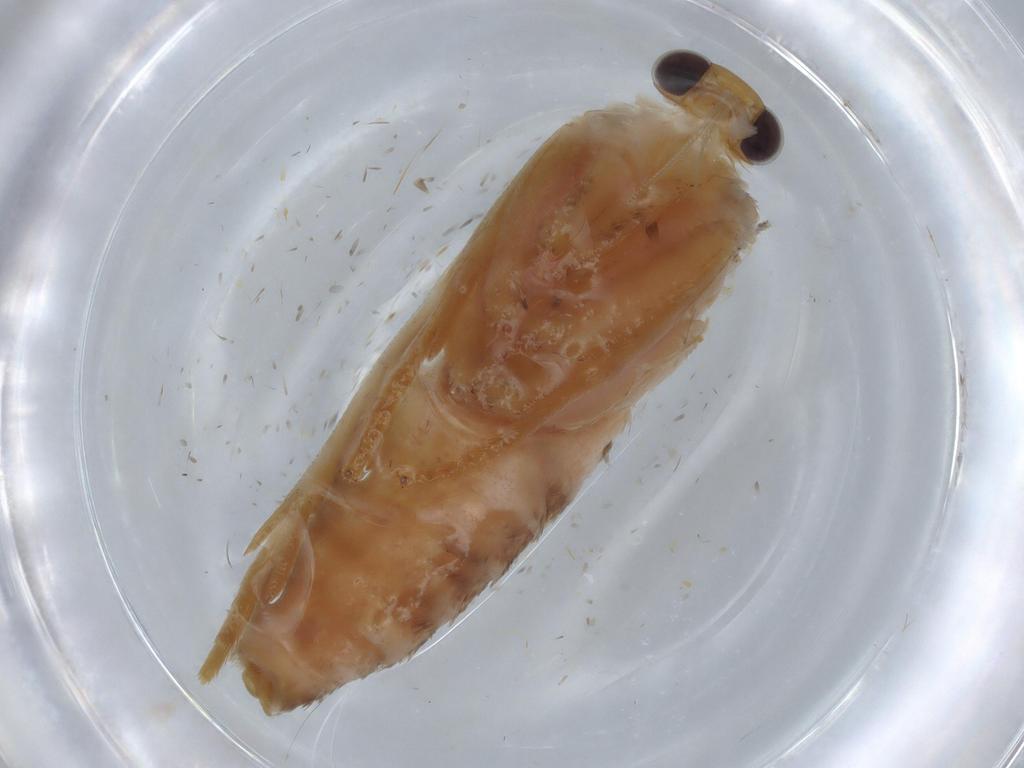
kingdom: Animalia
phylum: Arthropoda
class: Insecta
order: Lepidoptera
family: Tortricidae
